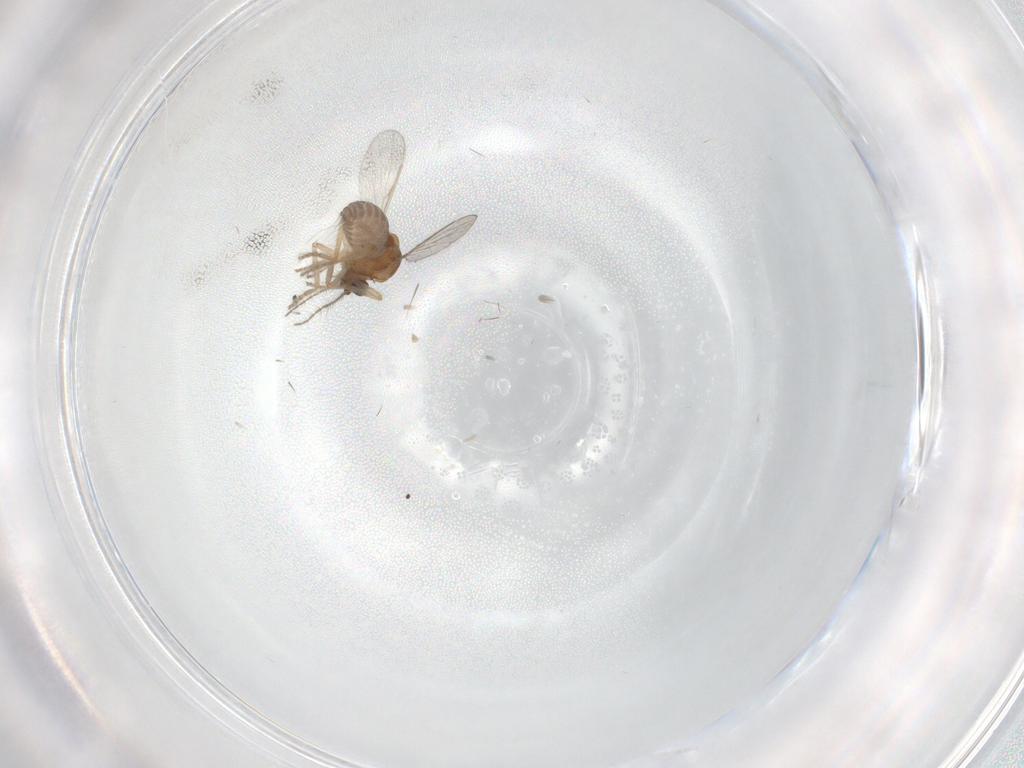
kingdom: Animalia
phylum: Arthropoda
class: Insecta
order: Diptera
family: Ceratopogonidae
